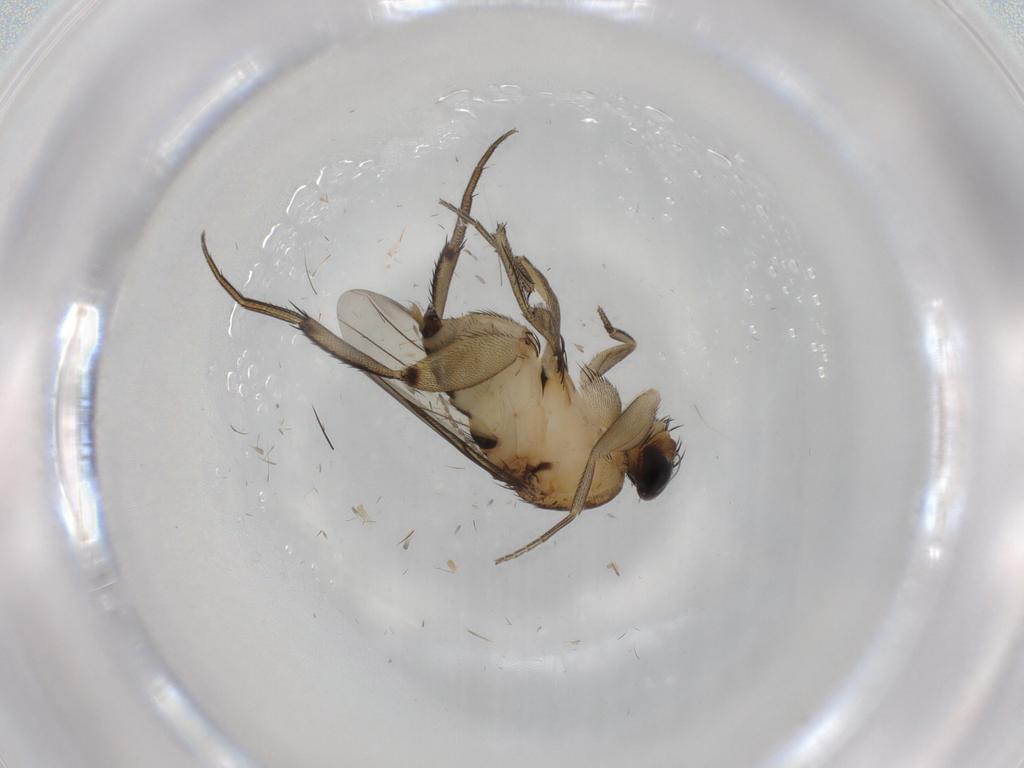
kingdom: Animalia
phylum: Arthropoda
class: Insecta
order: Diptera
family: Phoridae
